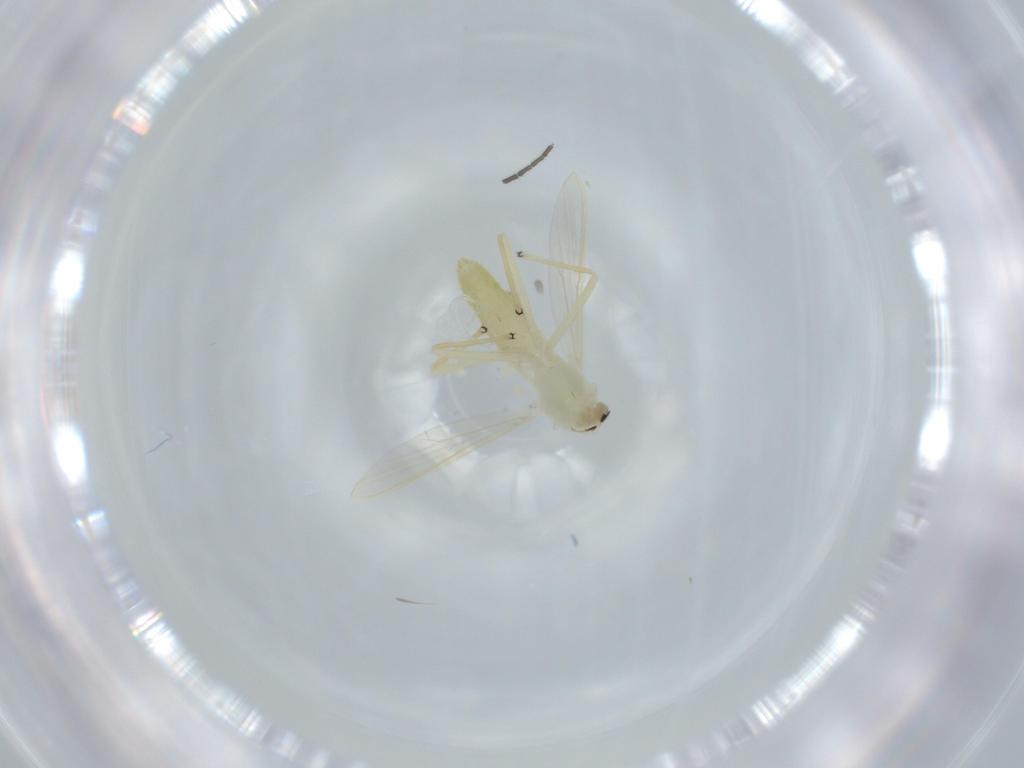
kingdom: Animalia
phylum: Arthropoda
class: Insecta
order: Diptera
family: Chironomidae
